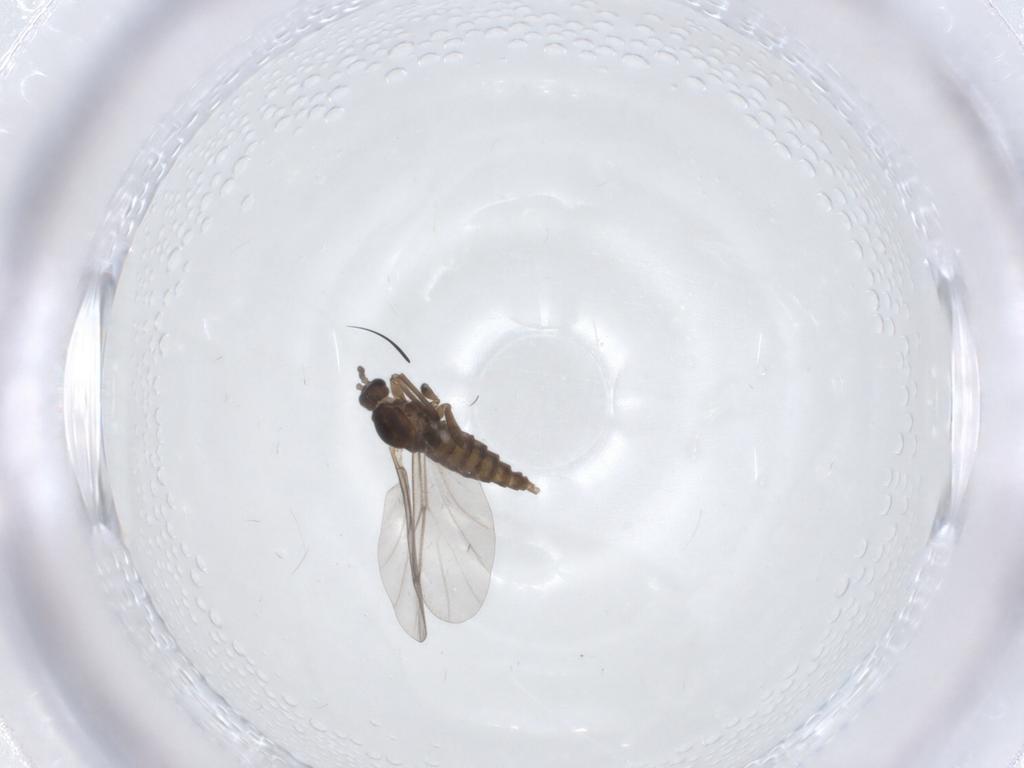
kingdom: Animalia
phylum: Arthropoda
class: Insecta
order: Diptera
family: Cecidomyiidae
